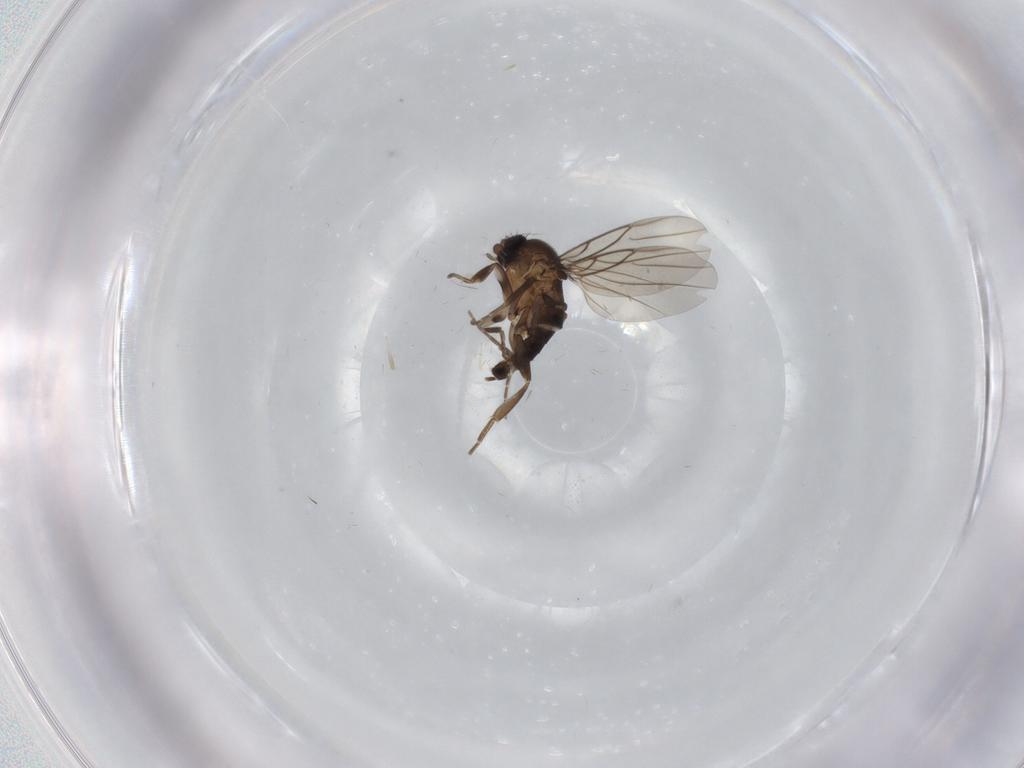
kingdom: Animalia
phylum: Arthropoda
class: Insecta
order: Diptera
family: Phoridae
